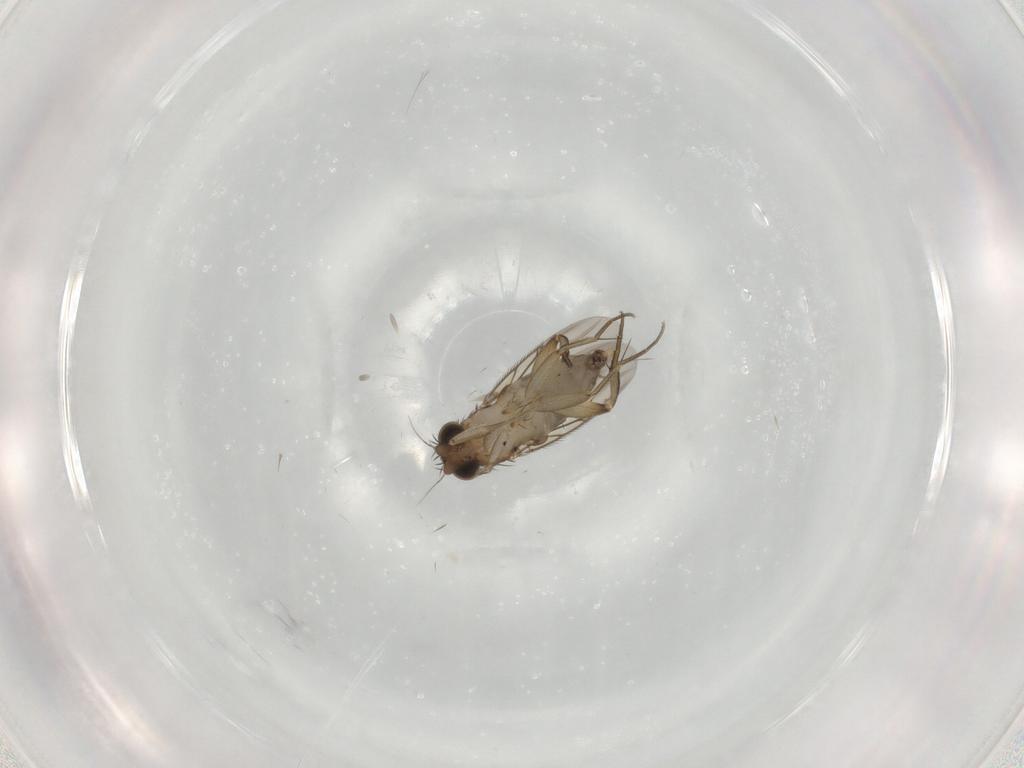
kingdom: Animalia
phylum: Arthropoda
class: Insecta
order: Diptera
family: Phoridae
